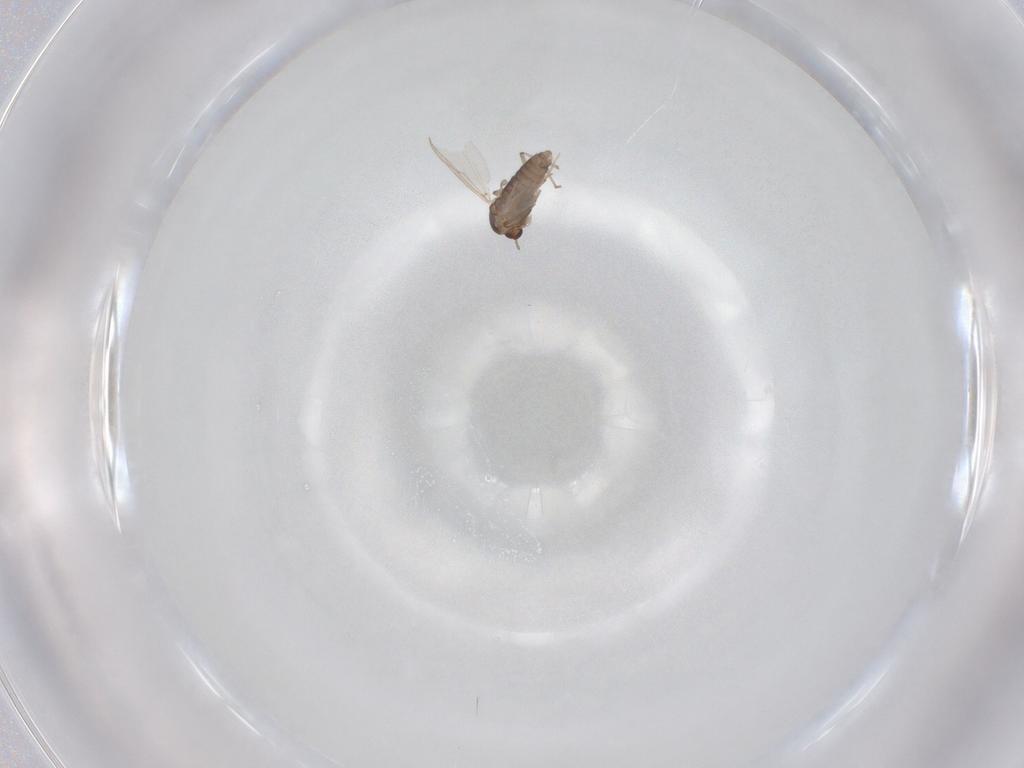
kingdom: Animalia
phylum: Arthropoda
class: Insecta
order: Diptera
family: Chironomidae
